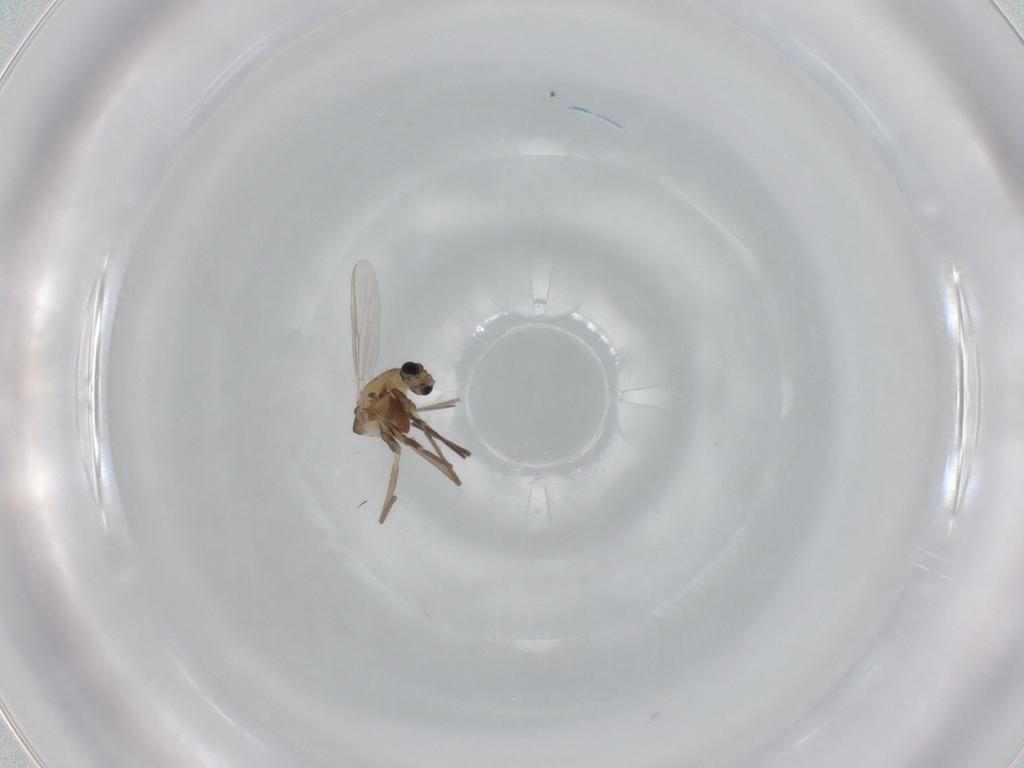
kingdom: Animalia
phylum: Arthropoda
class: Insecta
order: Diptera
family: Chironomidae
